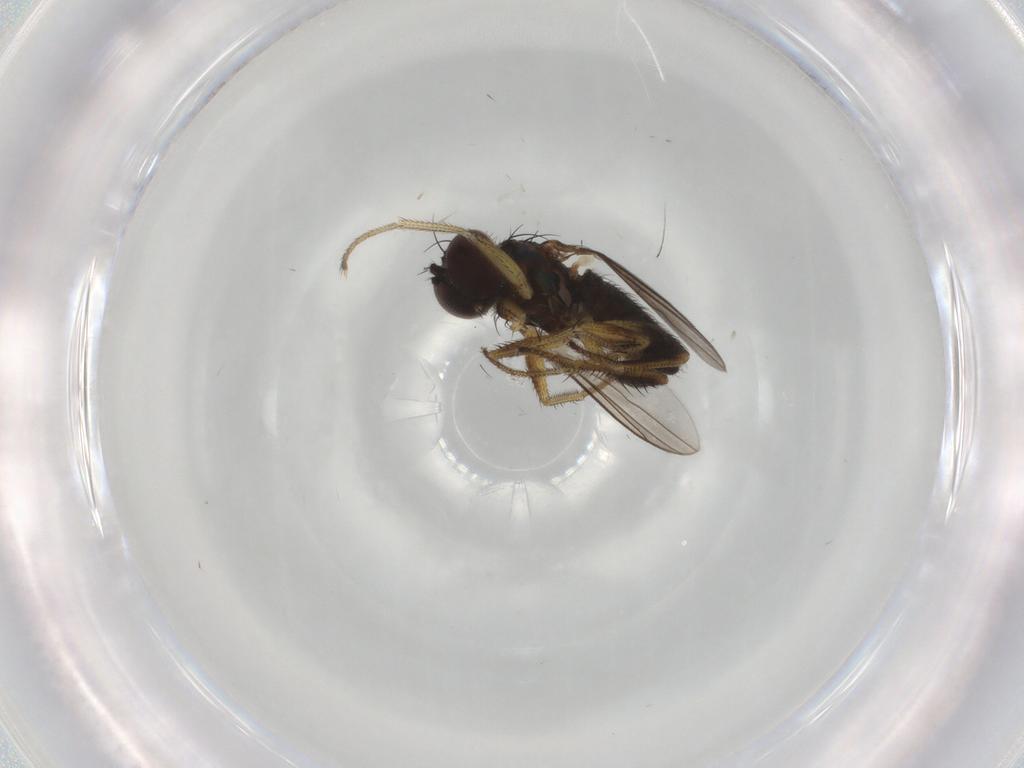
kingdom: Animalia
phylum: Arthropoda
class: Insecta
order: Diptera
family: Dolichopodidae
